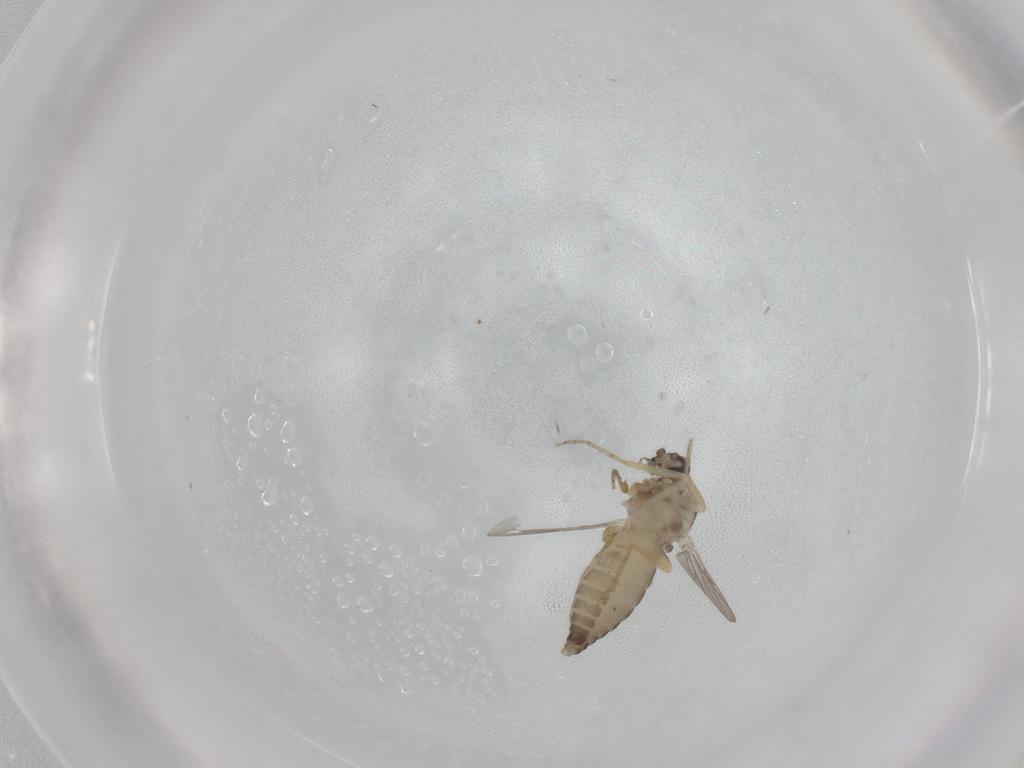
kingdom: Animalia
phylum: Arthropoda
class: Insecta
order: Diptera
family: Ceratopogonidae
